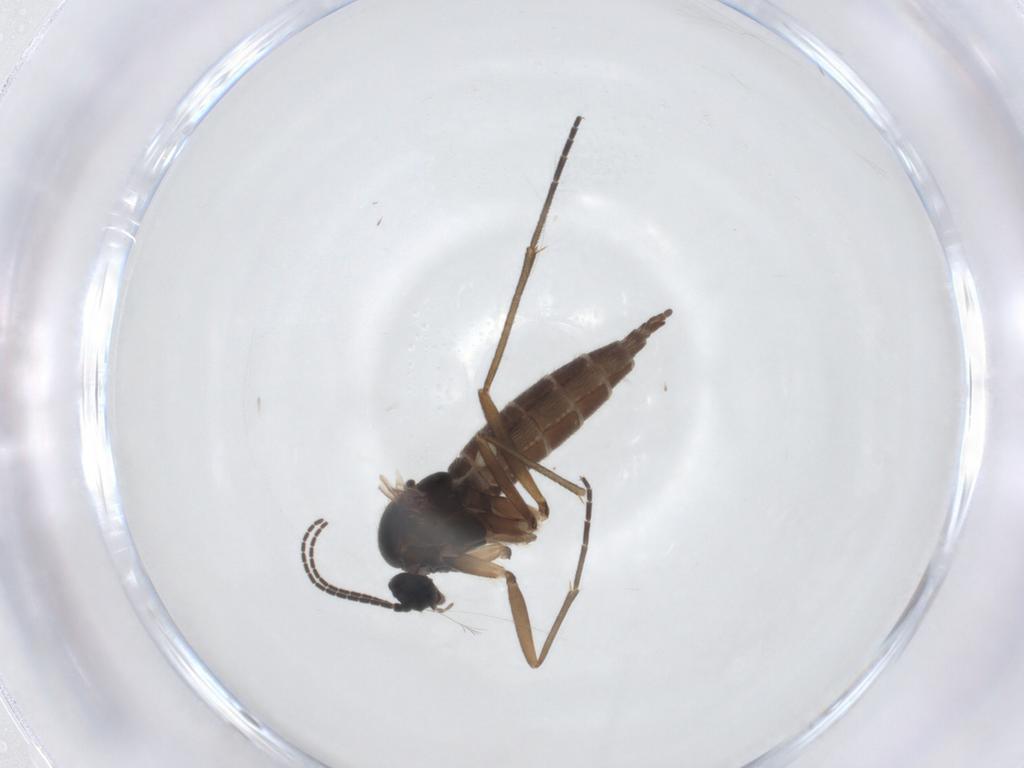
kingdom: Animalia
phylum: Arthropoda
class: Insecta
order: Diptera
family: Sciaridae
